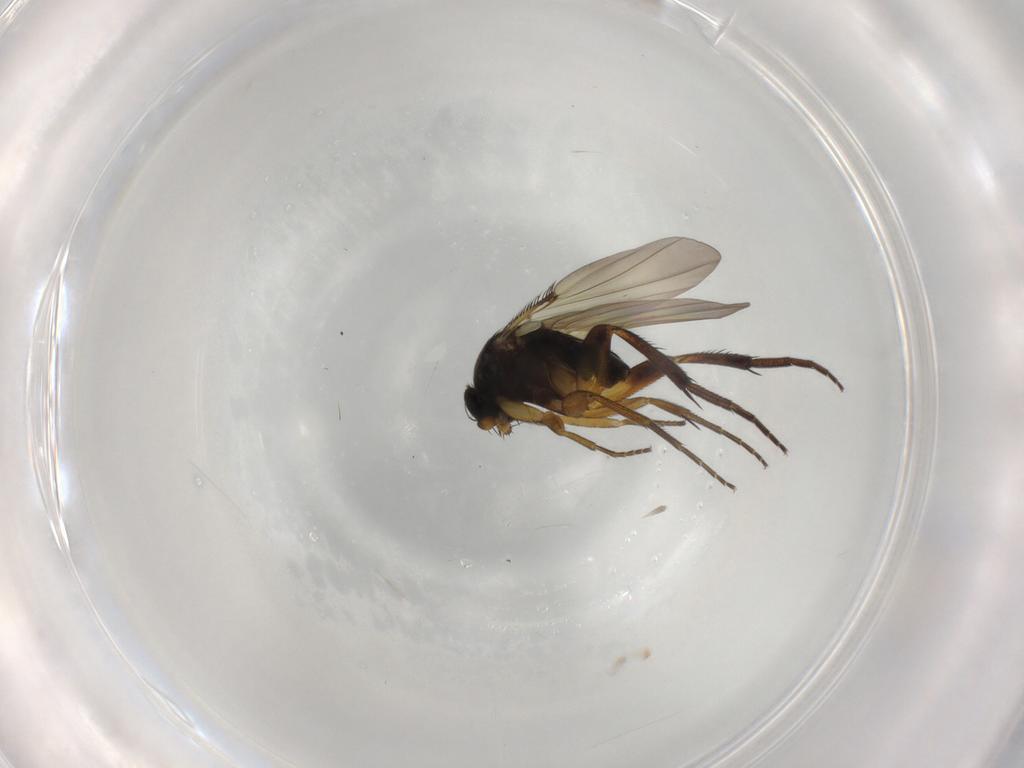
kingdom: Animalia
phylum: Arthropoda
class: Insecta
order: Diptera
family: Phoridae
